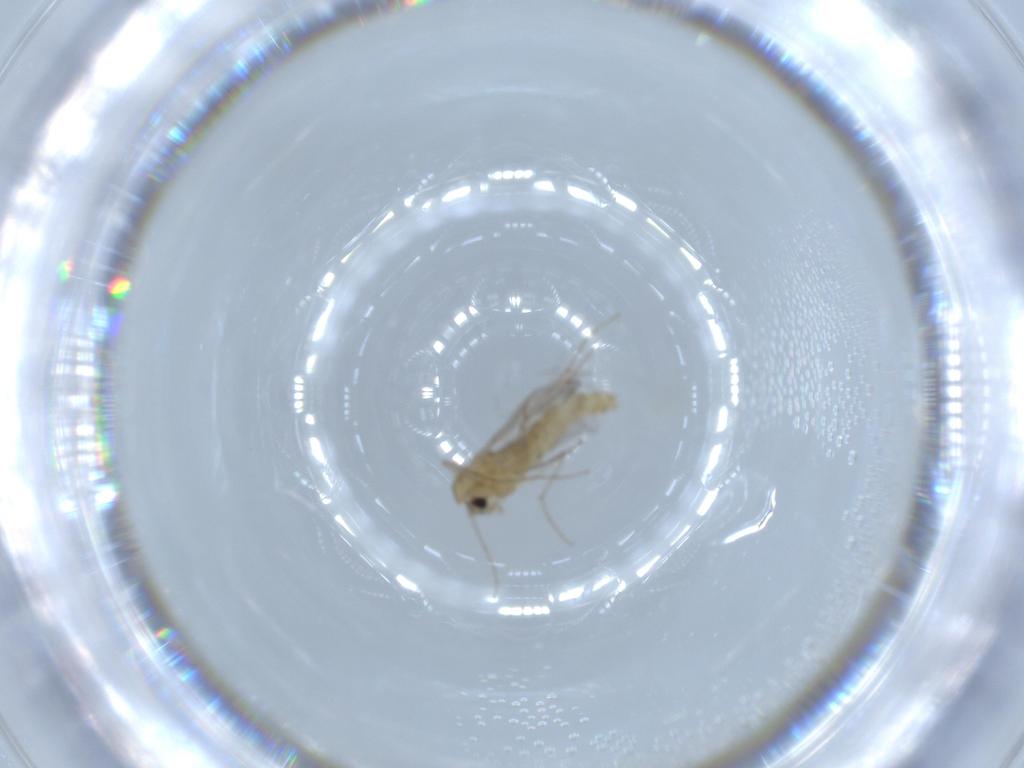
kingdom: Animalia
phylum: Arthropoda
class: Insecta
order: Diptera
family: Chironomidae
